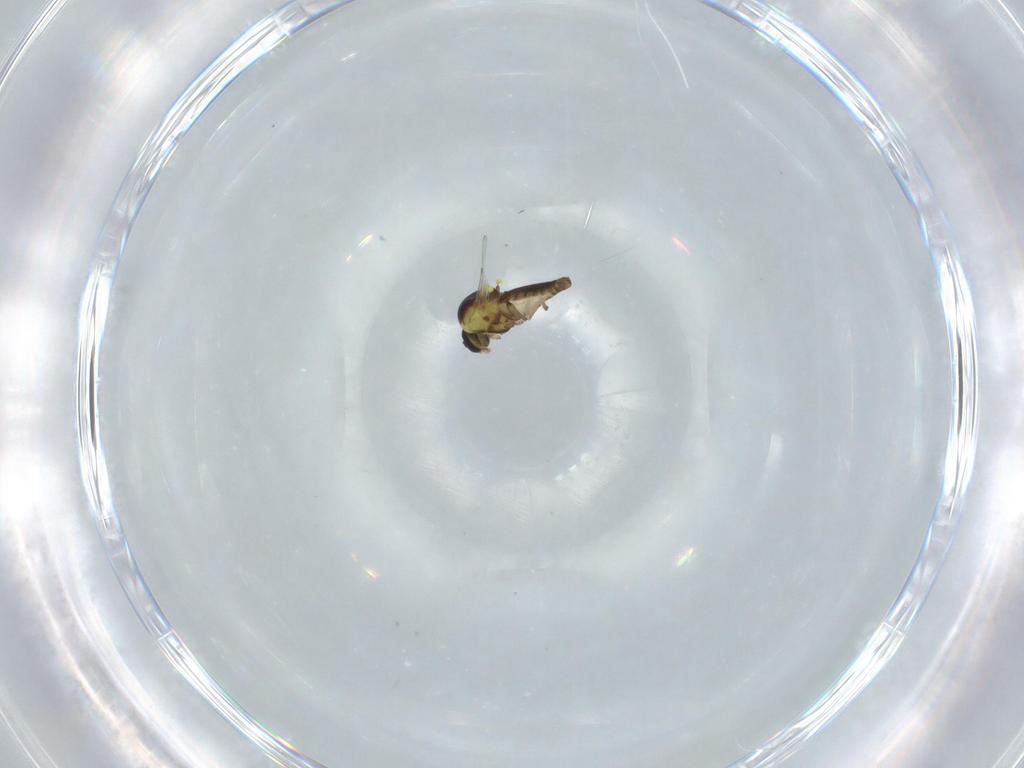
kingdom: Animalia
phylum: Arthropoda
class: Insecta
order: Diptera
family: Ceratopogonidae
